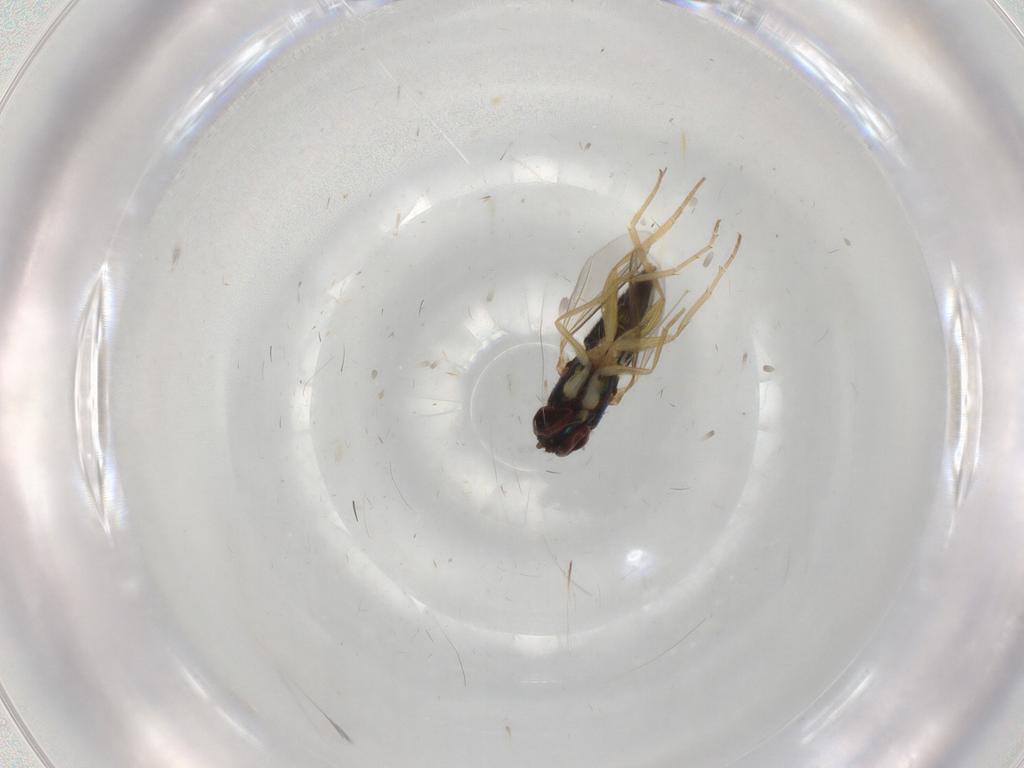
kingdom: Animalia
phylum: Arthropoda
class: Insecta
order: Diptera
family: Dolichopodidae
